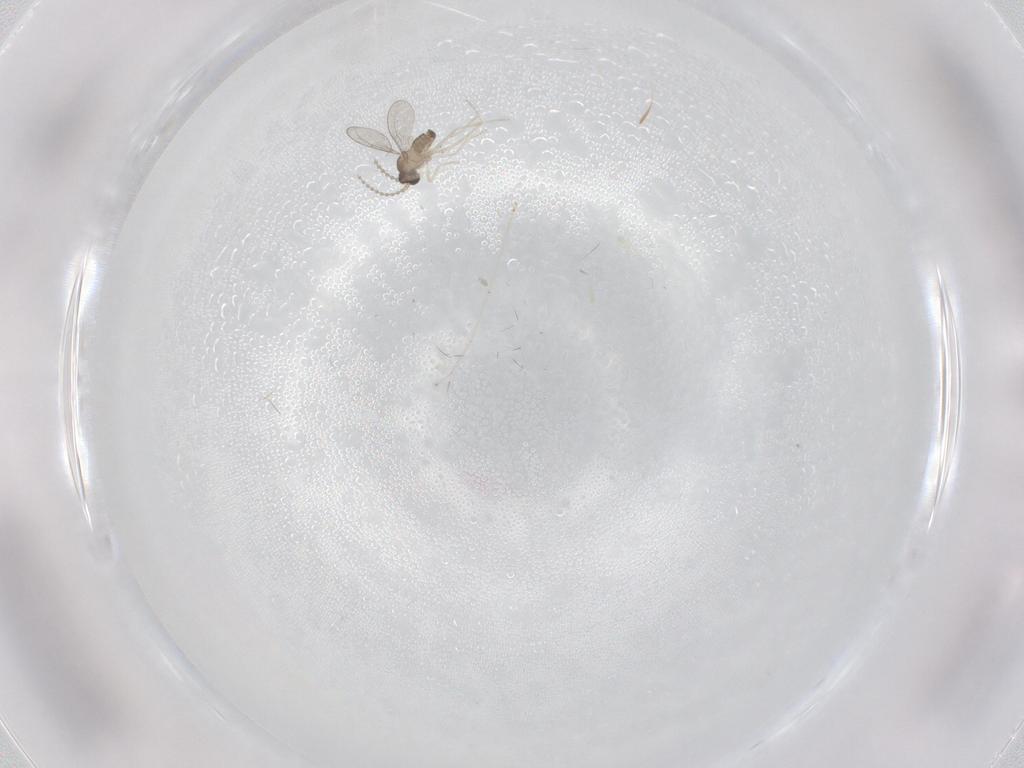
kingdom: Animalia
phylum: Arthropoda
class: Insecta
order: Diptera
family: Cecidomyiidae
